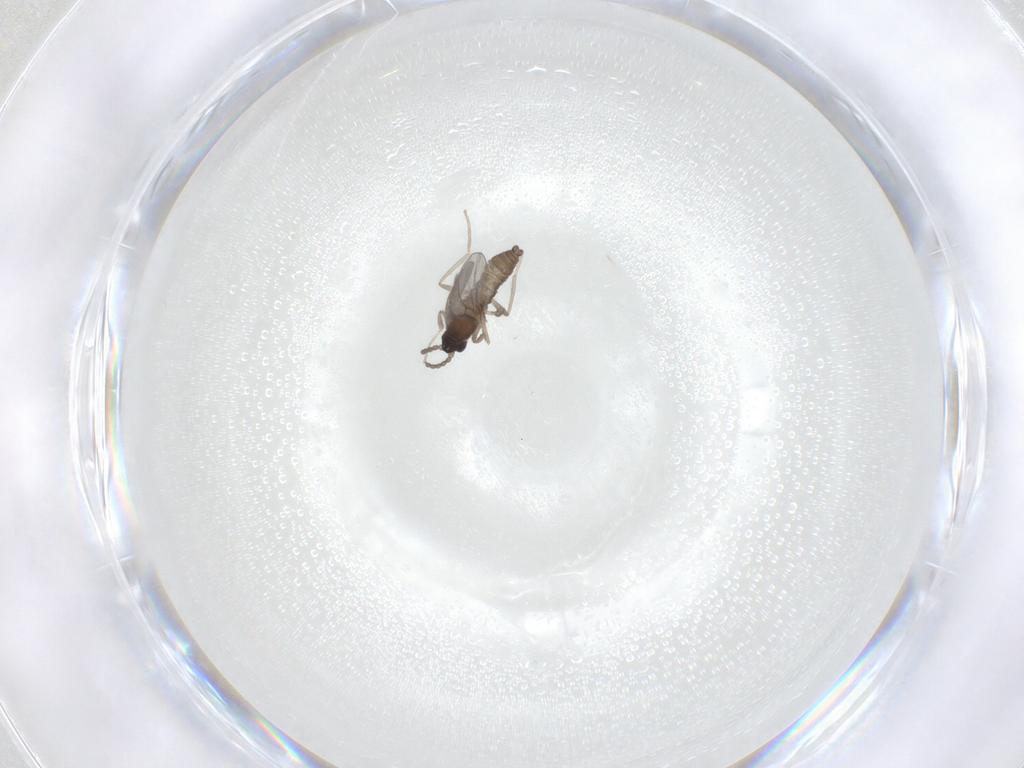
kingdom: Animalia
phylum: Arthropoda
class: Insecta
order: Diptera
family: Cecidomyiidae
